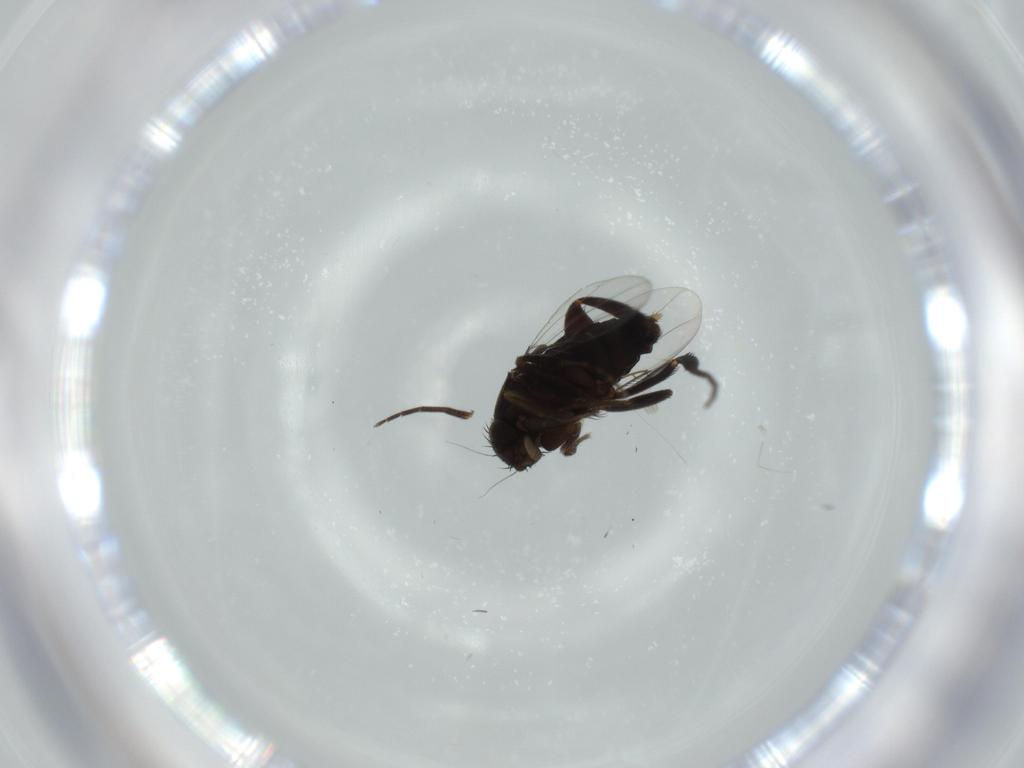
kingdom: Animalia
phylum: Arthropoda
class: Insecta
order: Diptera
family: Phoridae
